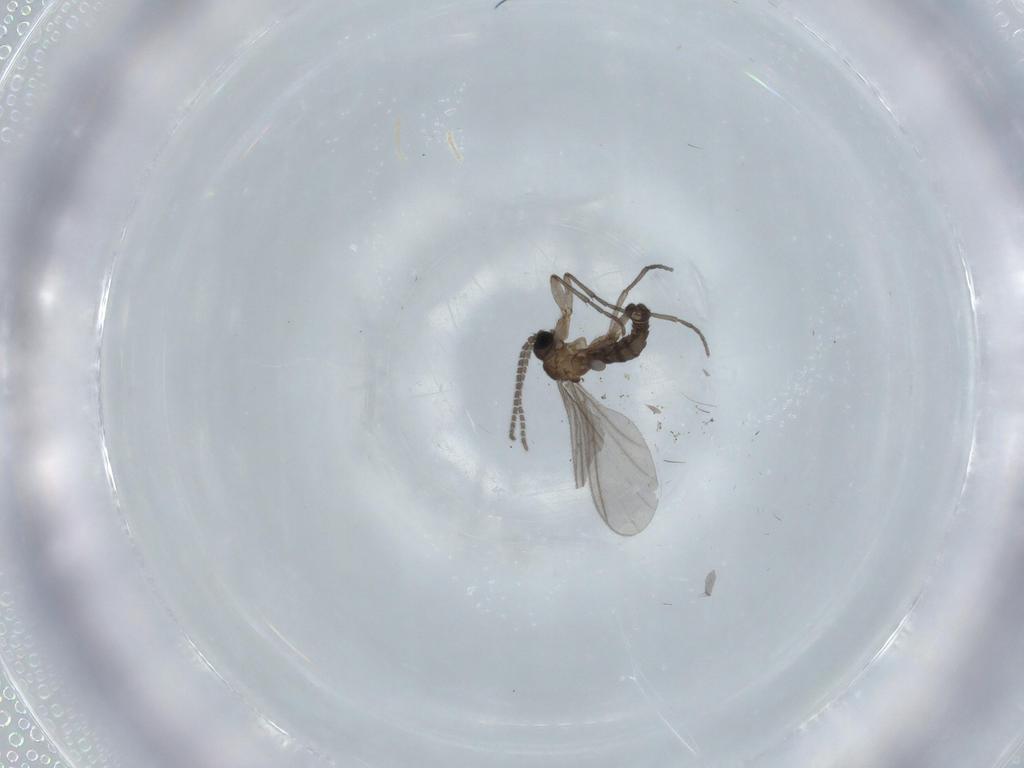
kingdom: Animalia
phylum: Arthropoda
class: Insecta
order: Diptera
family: Sciaridae
